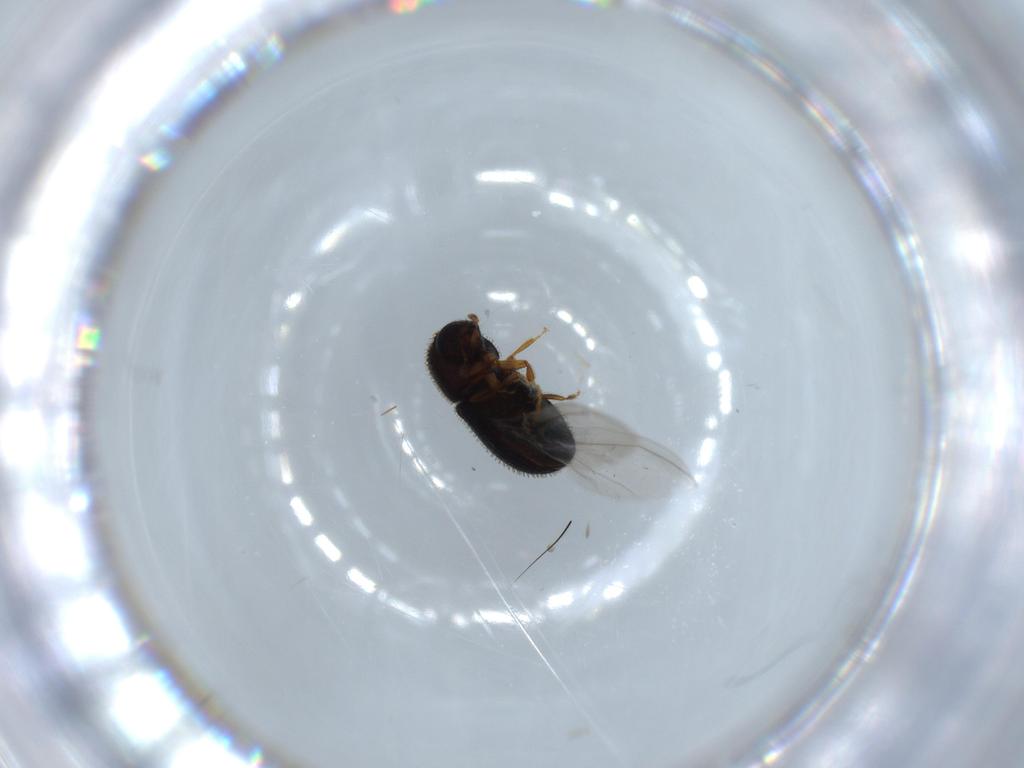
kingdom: Animalia
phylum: Arthropoda
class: Insecta
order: Coleoptera
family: Curculionidae
